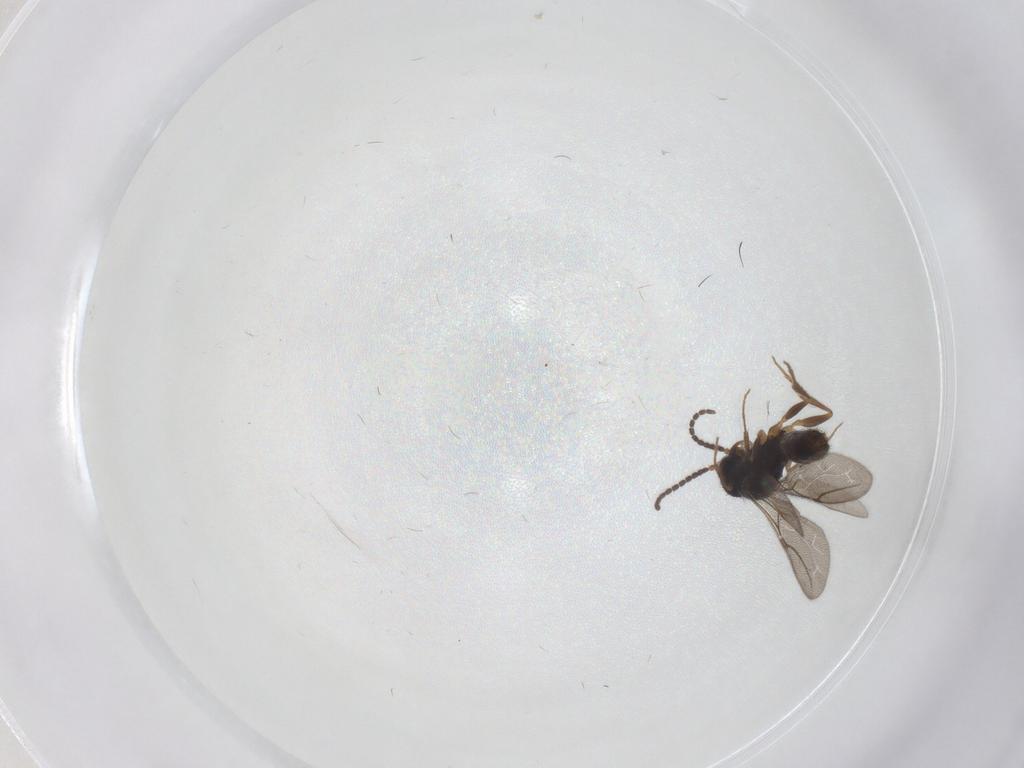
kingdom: Animalia
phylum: Arthropoda
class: Insecta
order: Hymenoptera
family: Bethylidae
